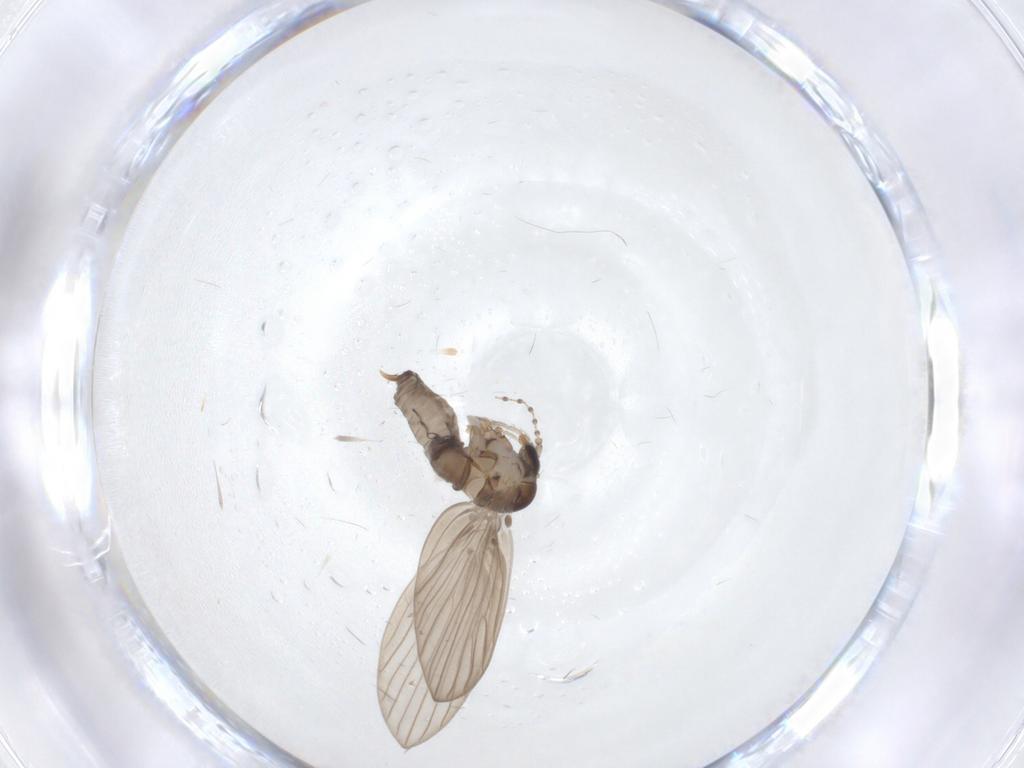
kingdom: Animalia
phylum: Arthropoda
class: Insecta
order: Diptera
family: Psychodidae
